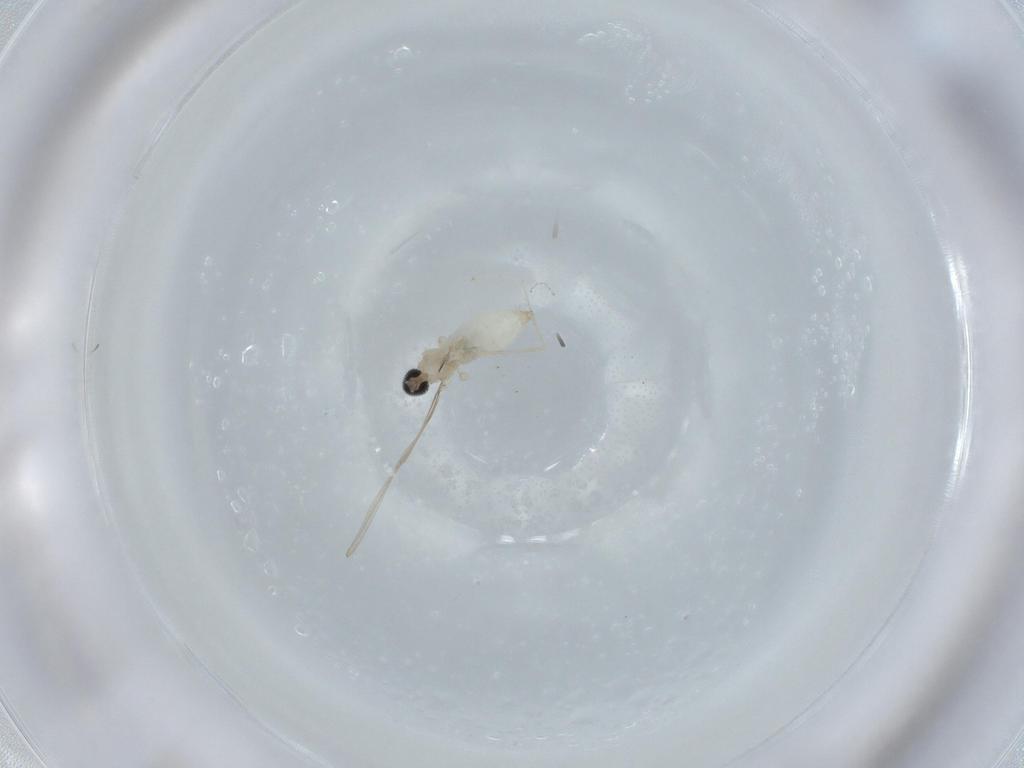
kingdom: Animalia
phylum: Arthropoda
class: Insecta
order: Diptera
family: Cecidomyiidae
